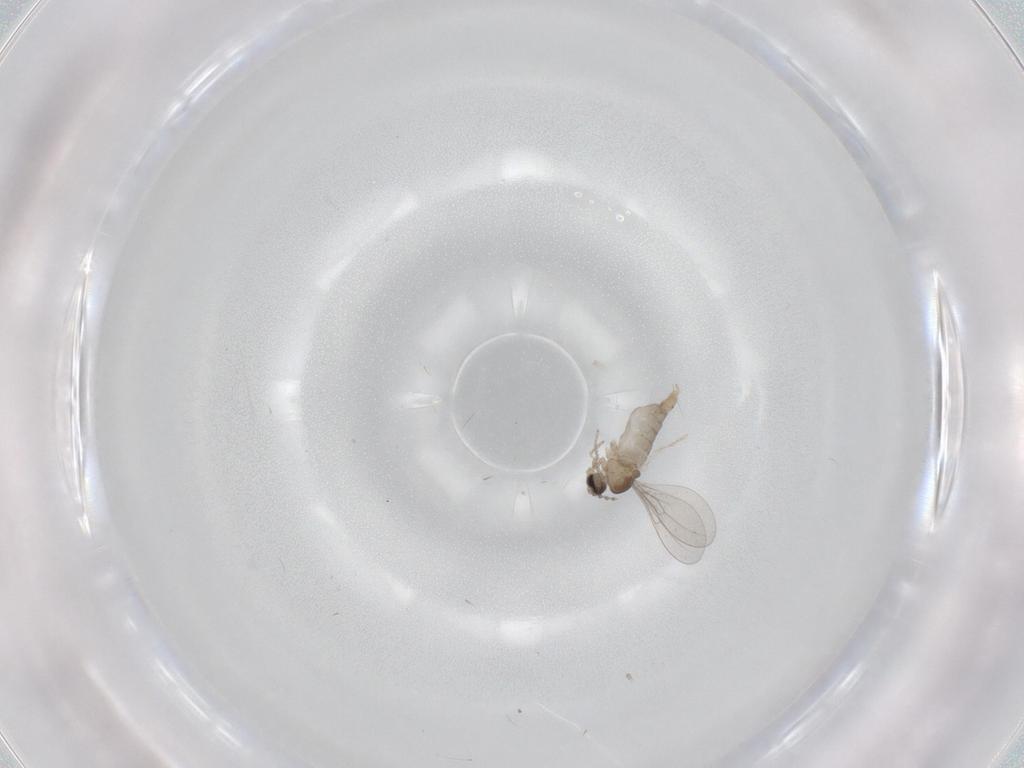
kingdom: Animalia
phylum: Arthropoda
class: Insecta
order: Diptera
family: Cecidomyiidae
